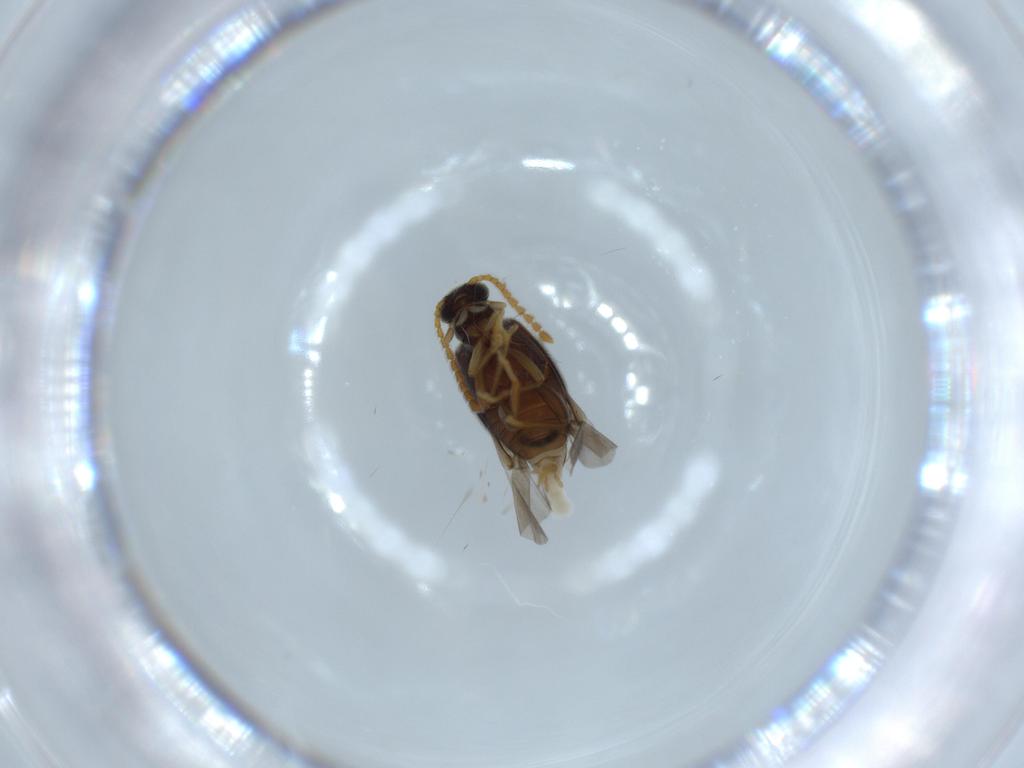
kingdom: Animalia
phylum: Arthropoda
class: Insecta
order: Coleoptera
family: Aderidae
